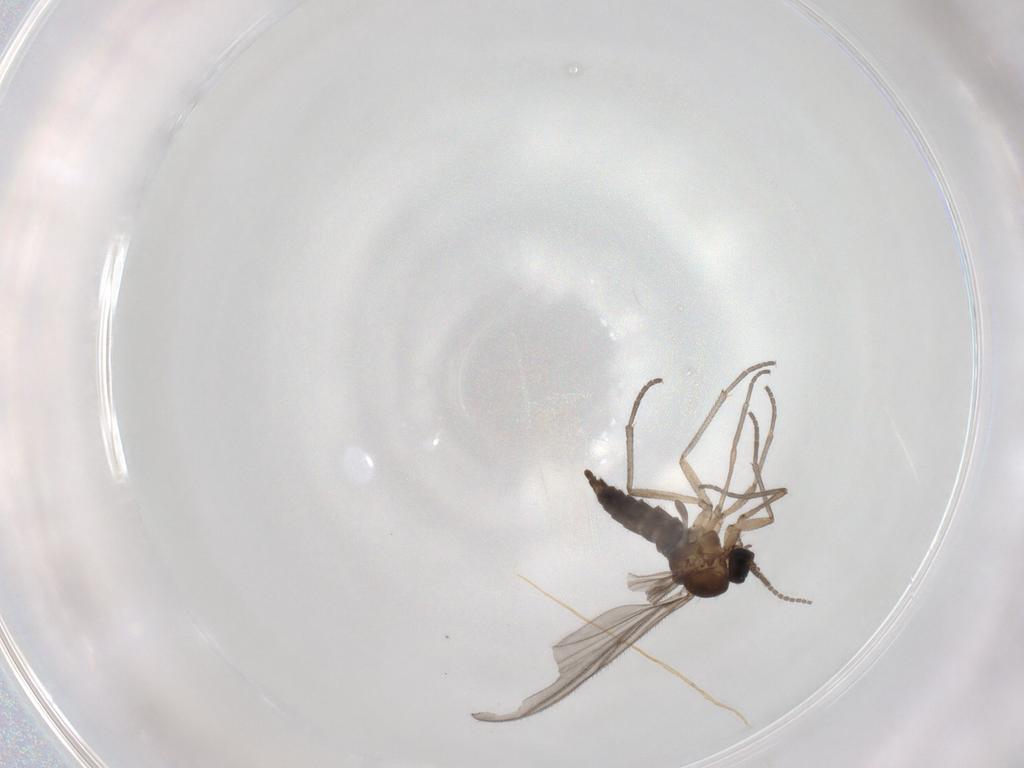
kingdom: Animalia
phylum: Arthropoda
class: Insecta
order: Diptera
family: Sciaridae
